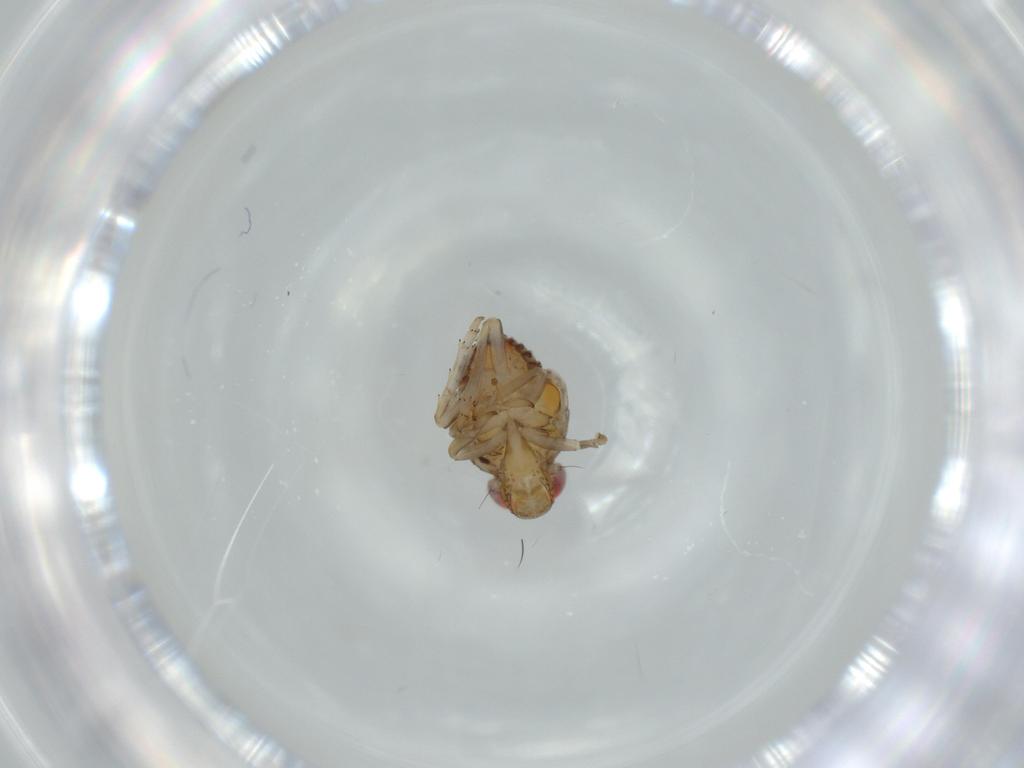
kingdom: Animalia
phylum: Arthropoda
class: Insecta
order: Hemiptera
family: Issidae
